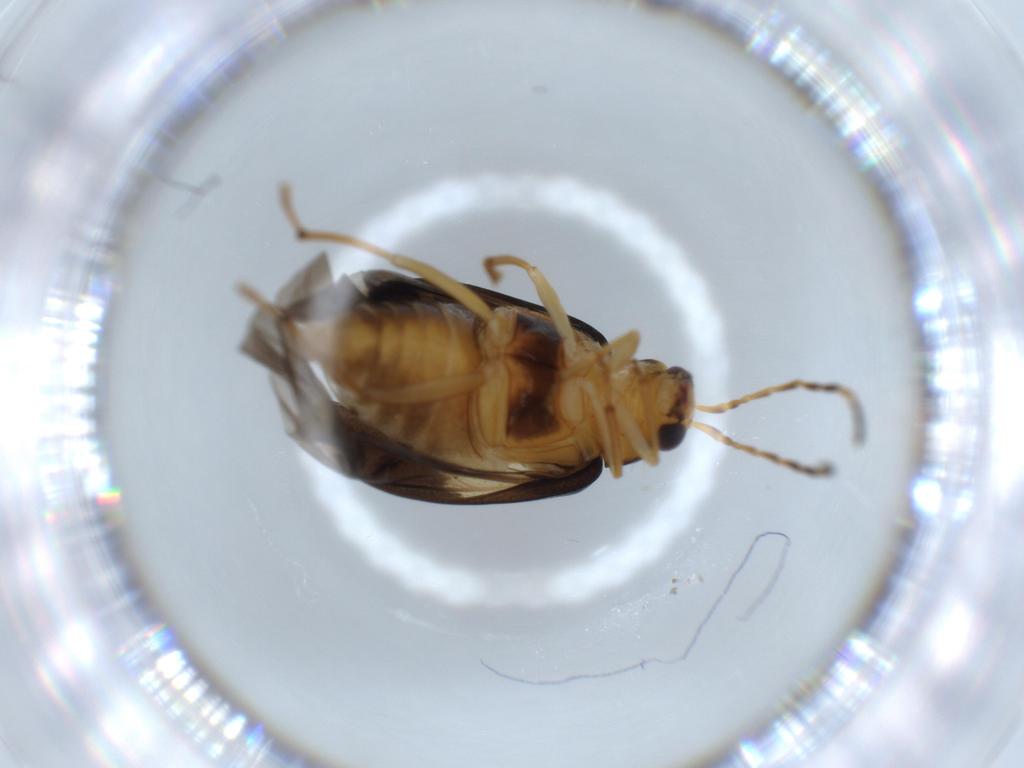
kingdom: Animalia
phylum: Arthropoda
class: Insecta
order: Coleoptera
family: Chrysomelidae
